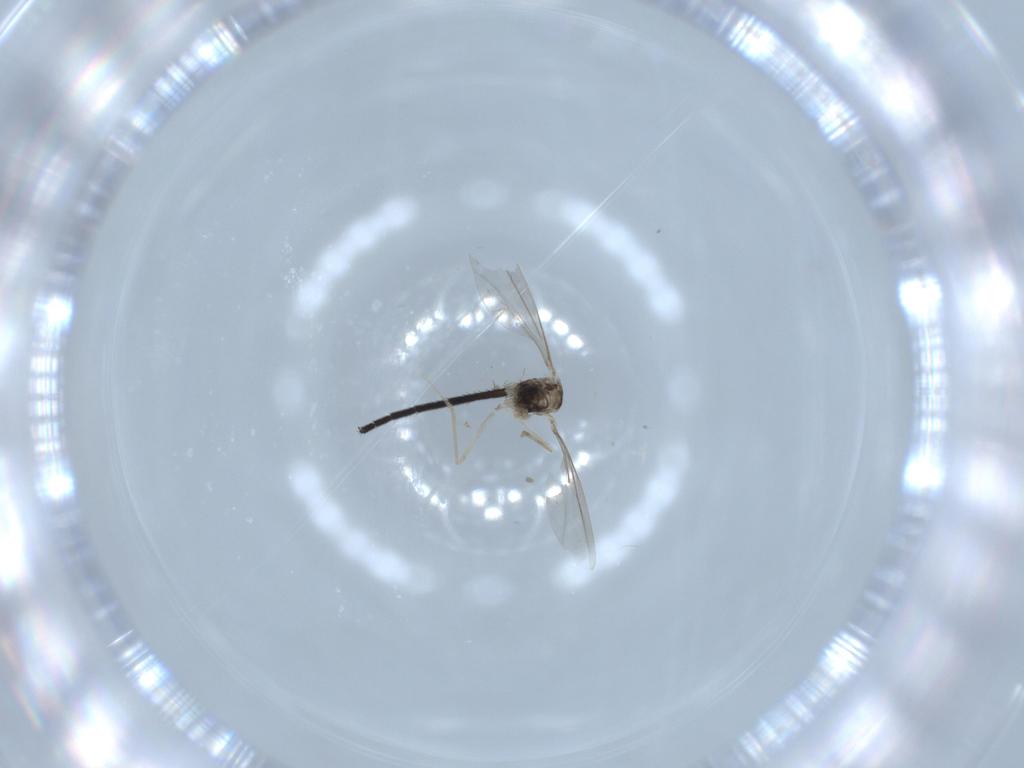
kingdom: Animalia
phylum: Arthropoda
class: Insecta
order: Diptera
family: Cecidomyiidae
